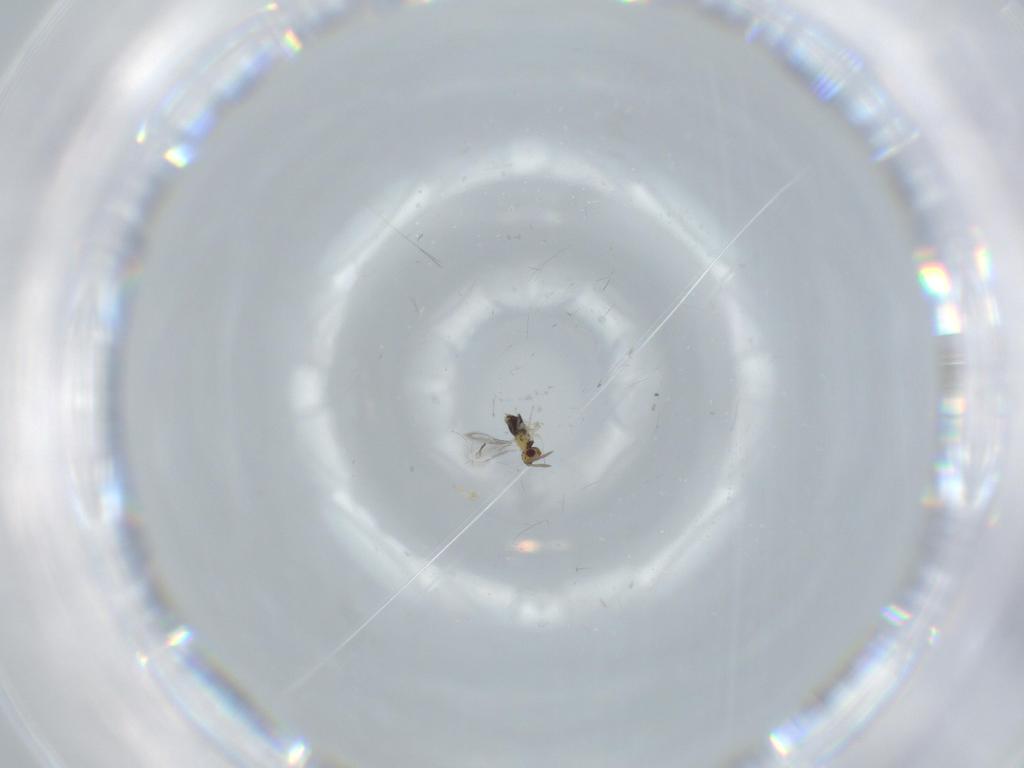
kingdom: Animalia
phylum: Arthropoda
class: Insecta
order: Hymenoptera
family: Aphelinidae
